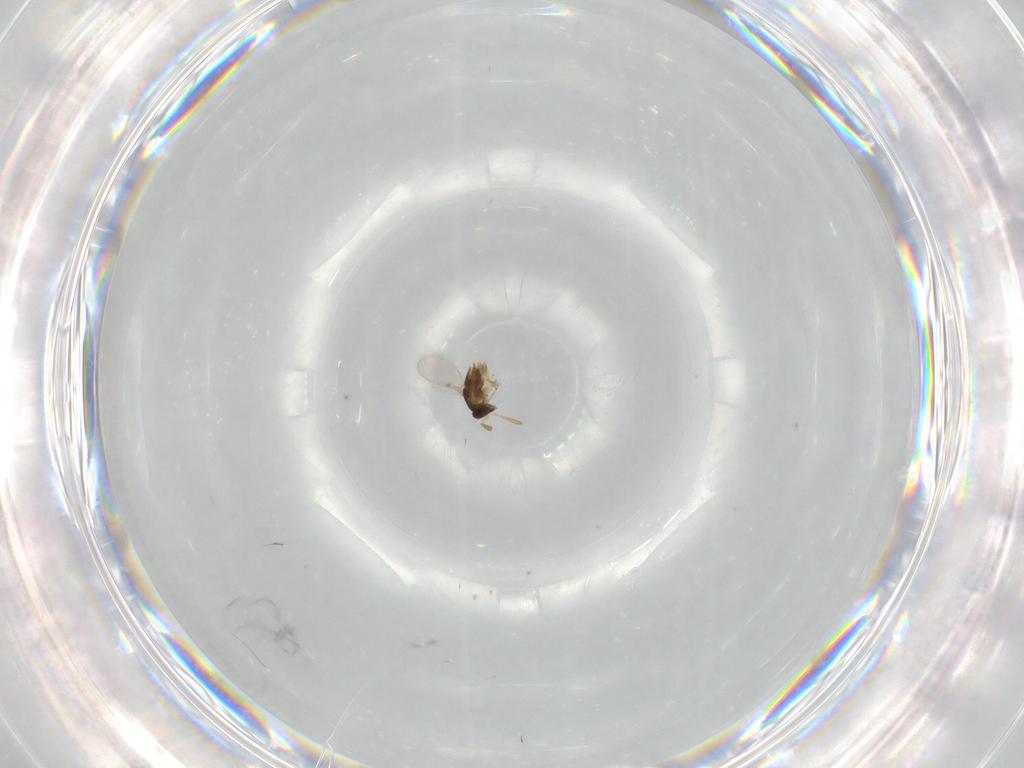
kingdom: Animalia
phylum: Arthropoda
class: Insecta
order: Hymenoptera
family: Encyrtidae
